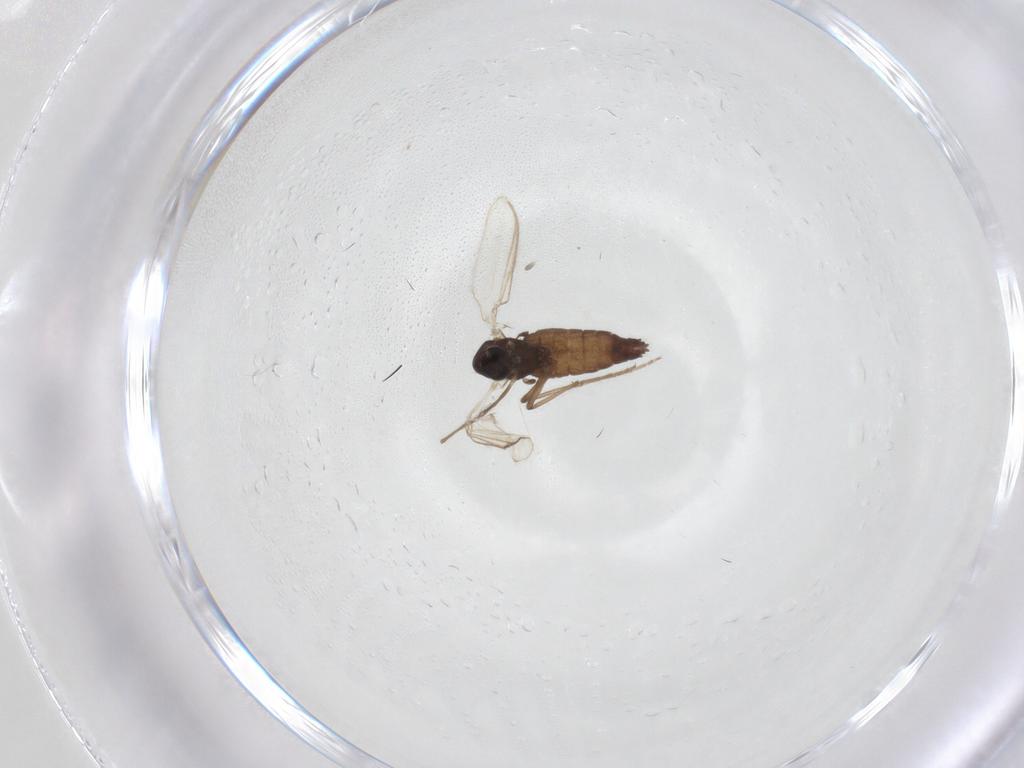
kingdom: Animalia
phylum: Arthropoda
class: Insecta
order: Diptera
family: Chironomidae
